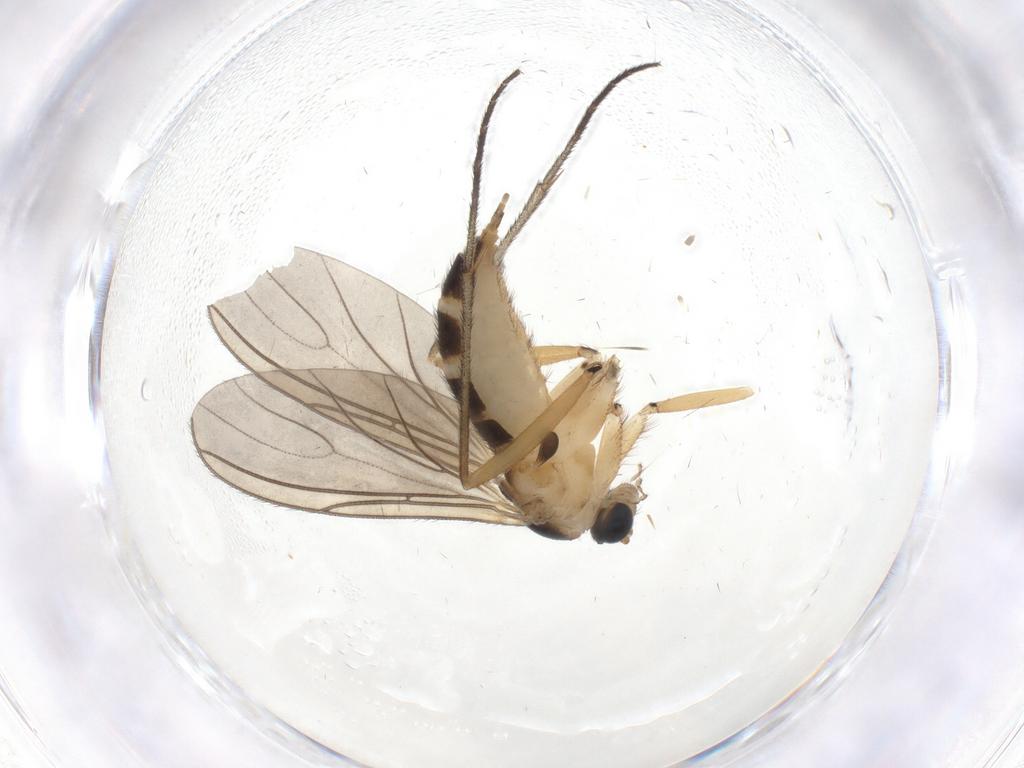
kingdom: Animalia
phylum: Arthropoda
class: Insecta
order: Diptera
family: Sciaridae
